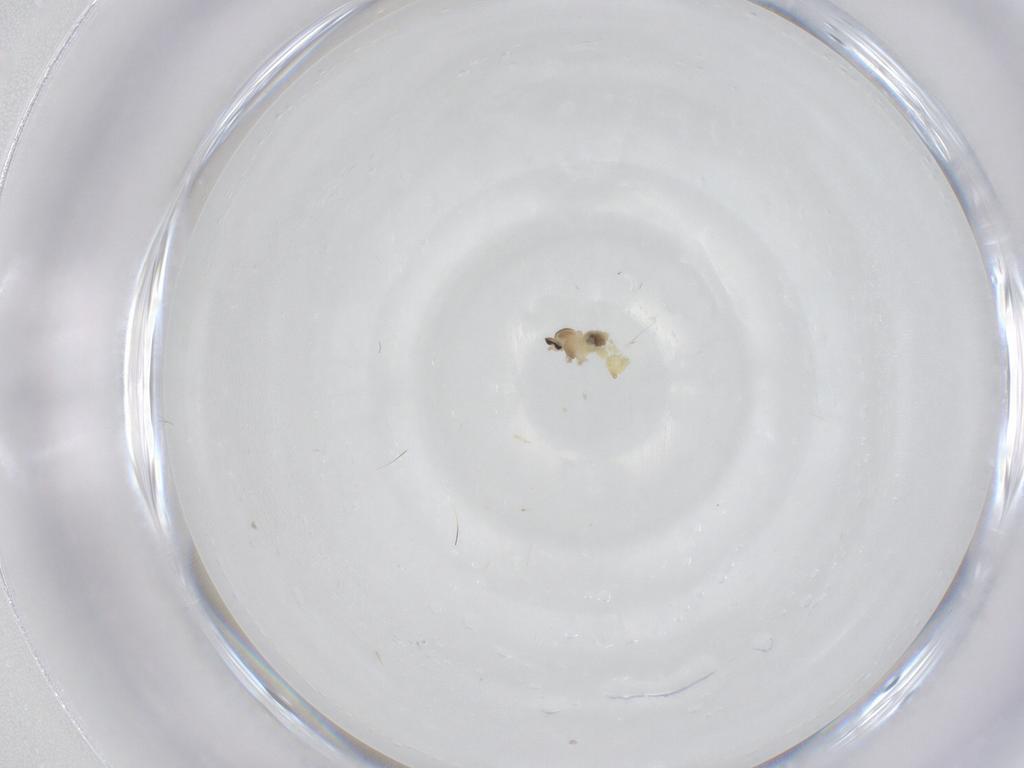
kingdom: Animalia
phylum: Arthropoda
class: Insecta
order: Diptera
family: Cecidomyiidae
